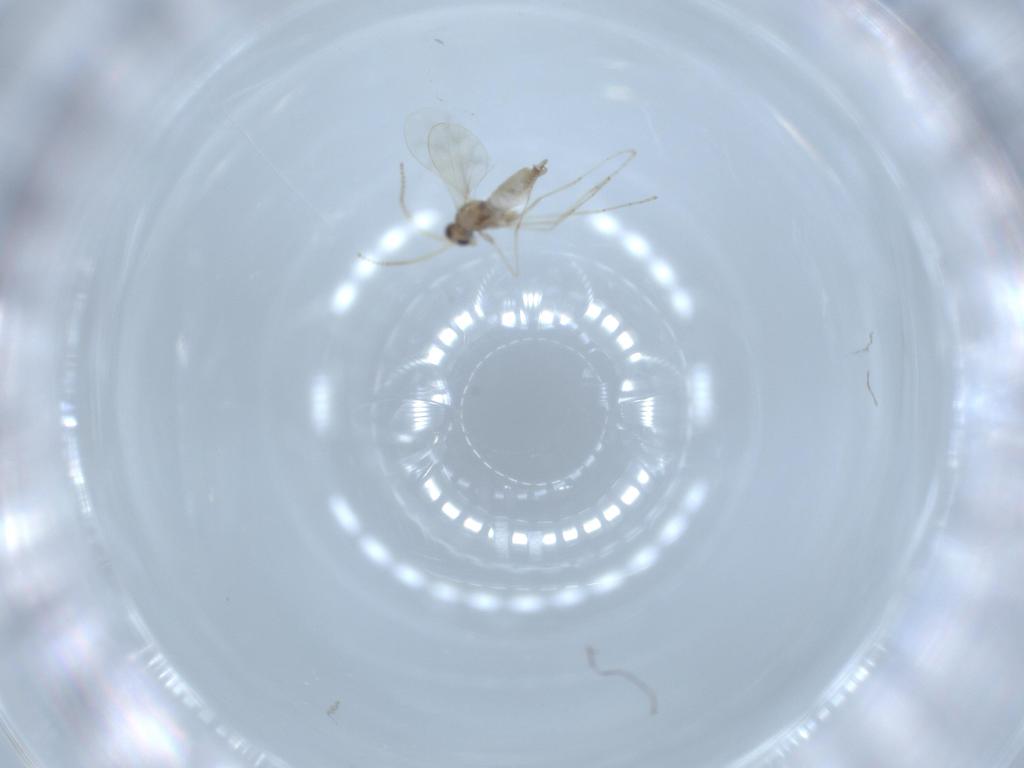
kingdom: Animalia
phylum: Arthropoda
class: Insecta
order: Diptera
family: Cecidomyiidae
